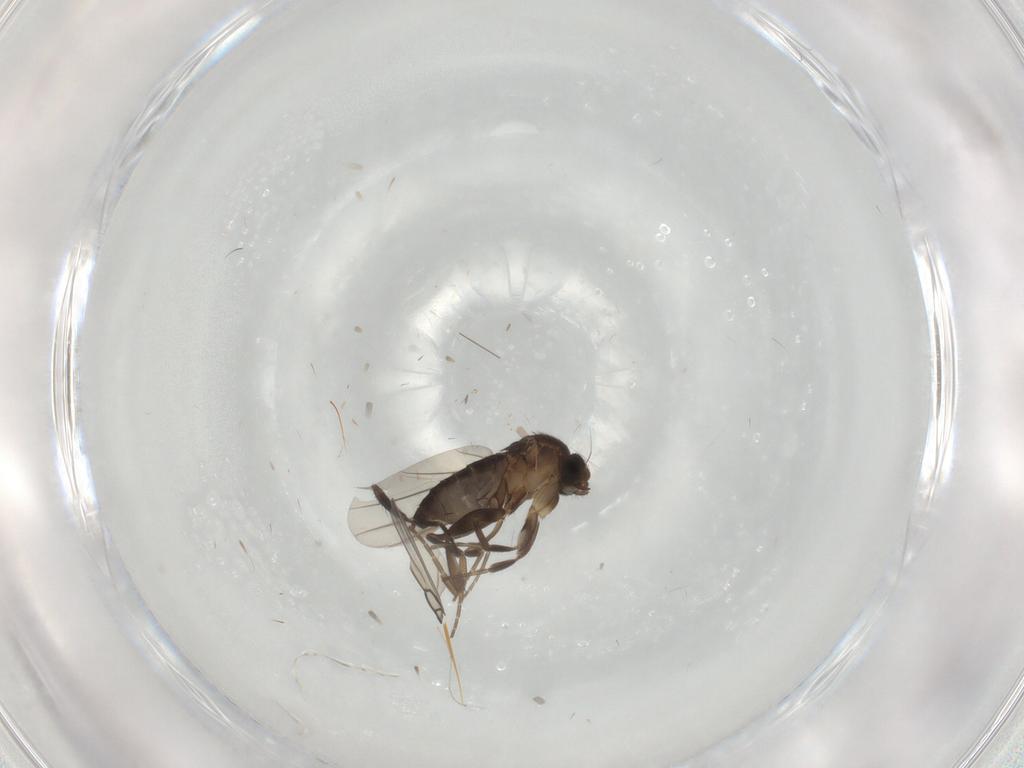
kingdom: Animalia
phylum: Arthropoda
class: Insecta
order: Diptera
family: Phoridae
